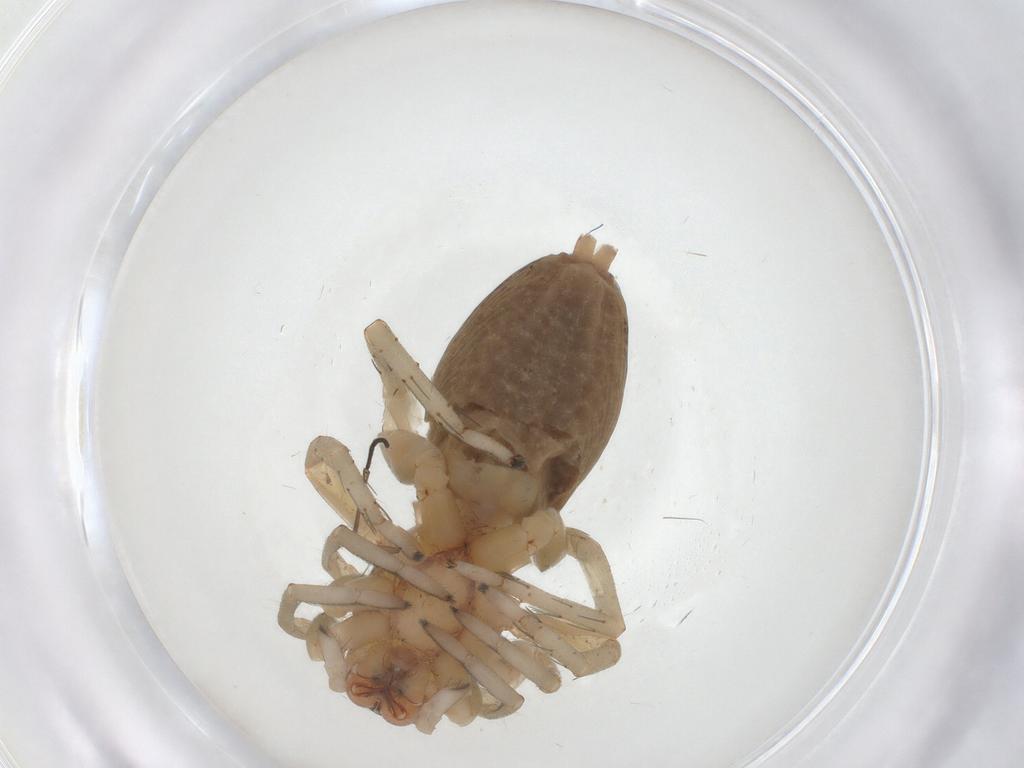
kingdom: Animalia
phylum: Arthropoda
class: Arachnida
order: Araneae
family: Clubionidae
